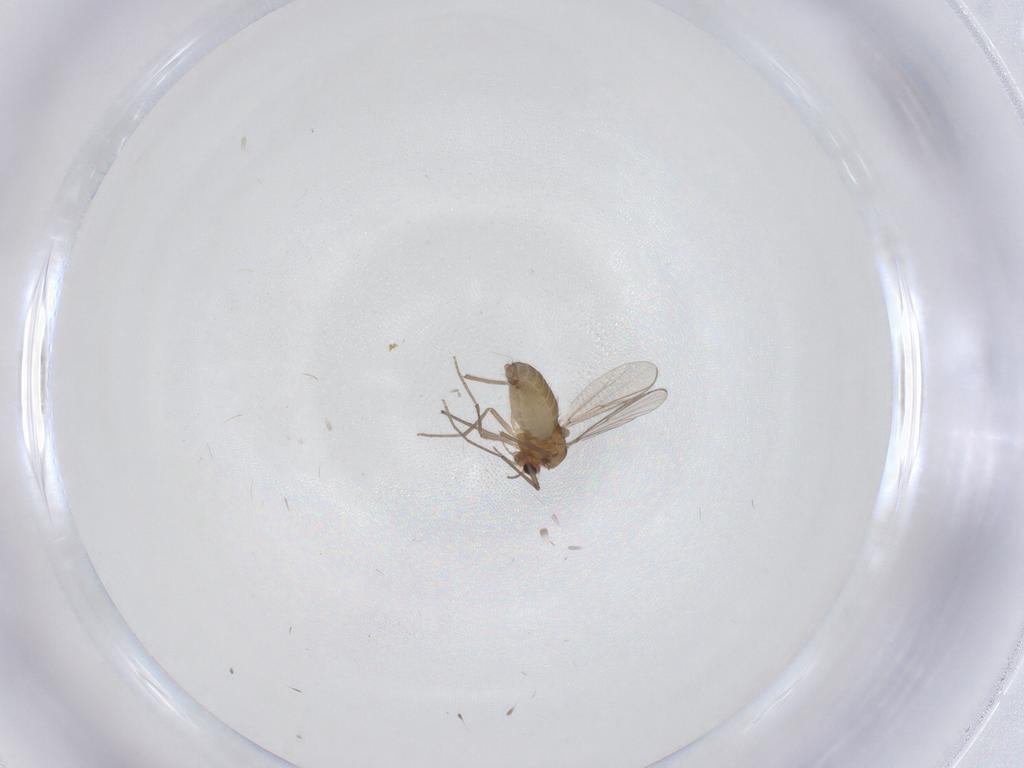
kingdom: Animalia
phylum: Arthropoda
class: Insecta
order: Diptera
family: Chironomidae
